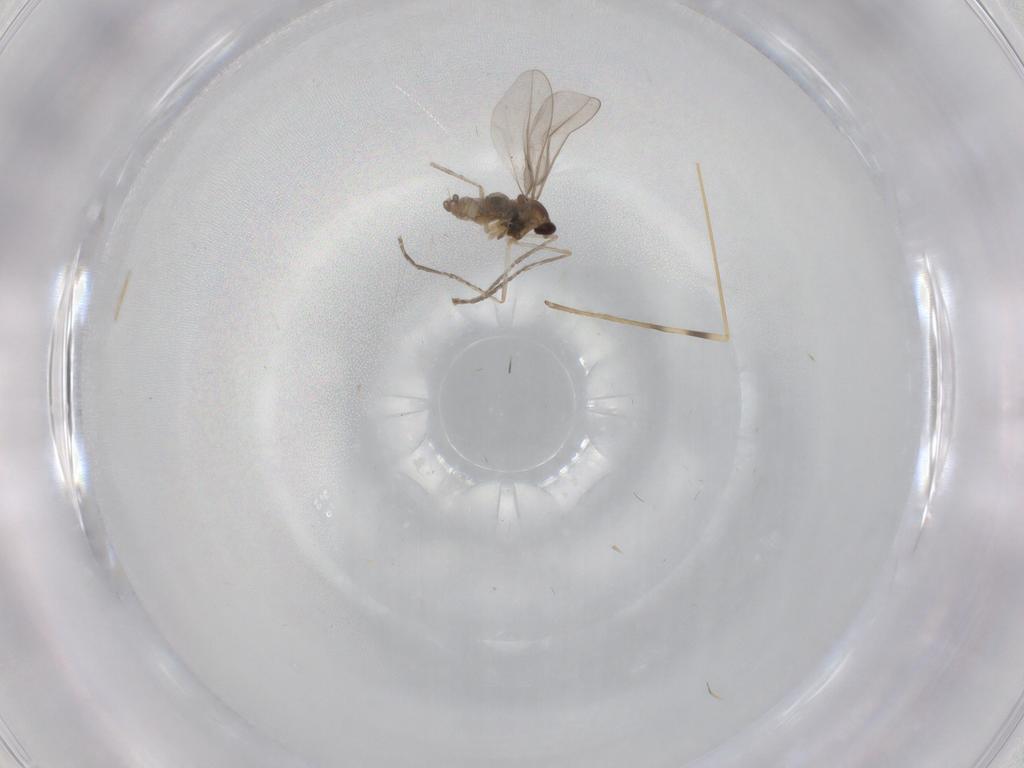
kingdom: Animalia
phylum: Arthropoda
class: Insecta
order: Diptera
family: Cecidomyiidae
